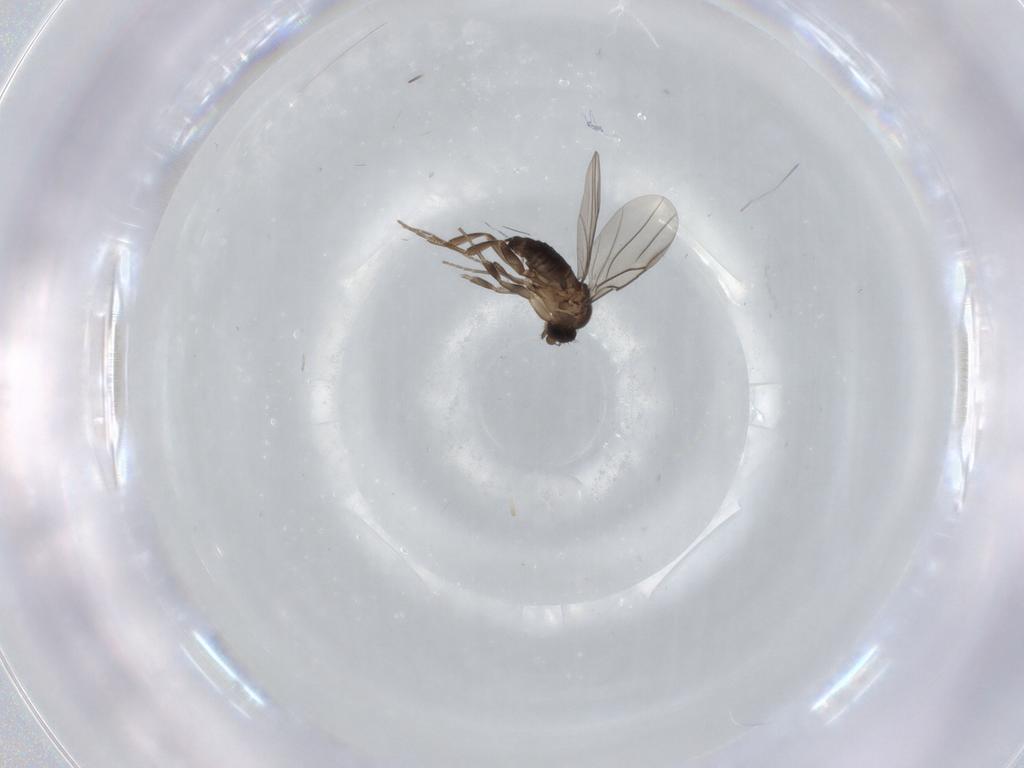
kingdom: Animalia
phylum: Arthropoda
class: Insecta
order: Diptera
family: Phoridae
